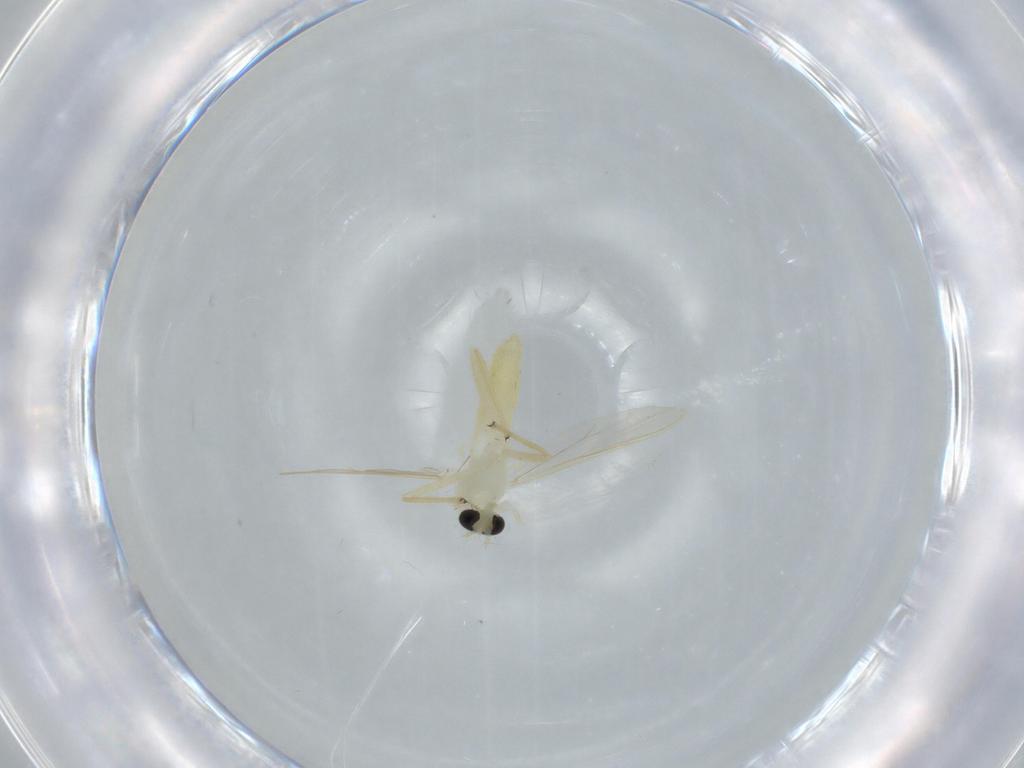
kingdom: Animalia
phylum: Arthropoda
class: Insecta
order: Diptera
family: Chironomidae
